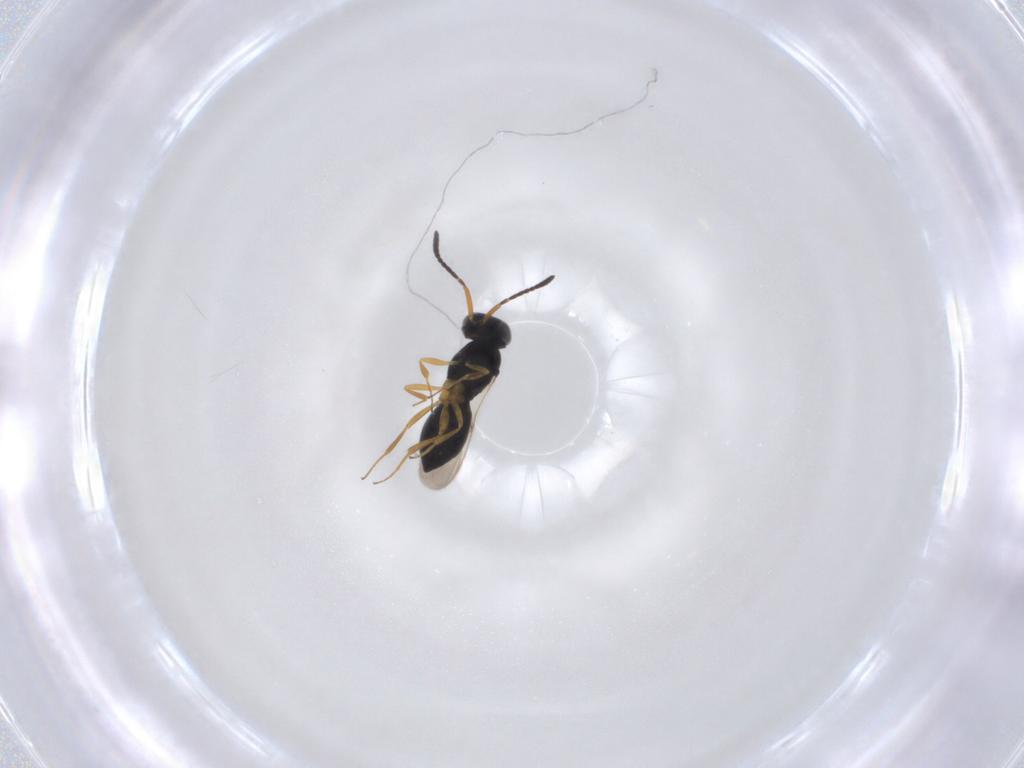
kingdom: Animalia
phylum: Arthropoda
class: Insecta
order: Hymenoptera
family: Scelionidae
